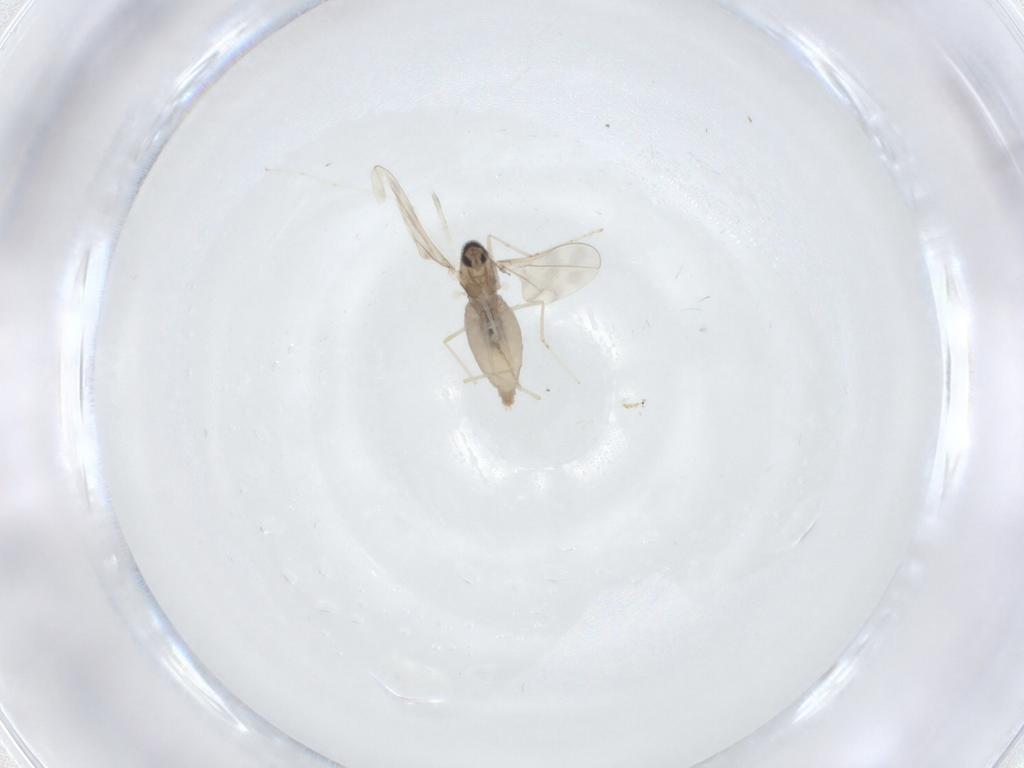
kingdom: Animalia
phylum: Arthropoda
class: Insecta
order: Diptera
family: Cecidomyiidae
